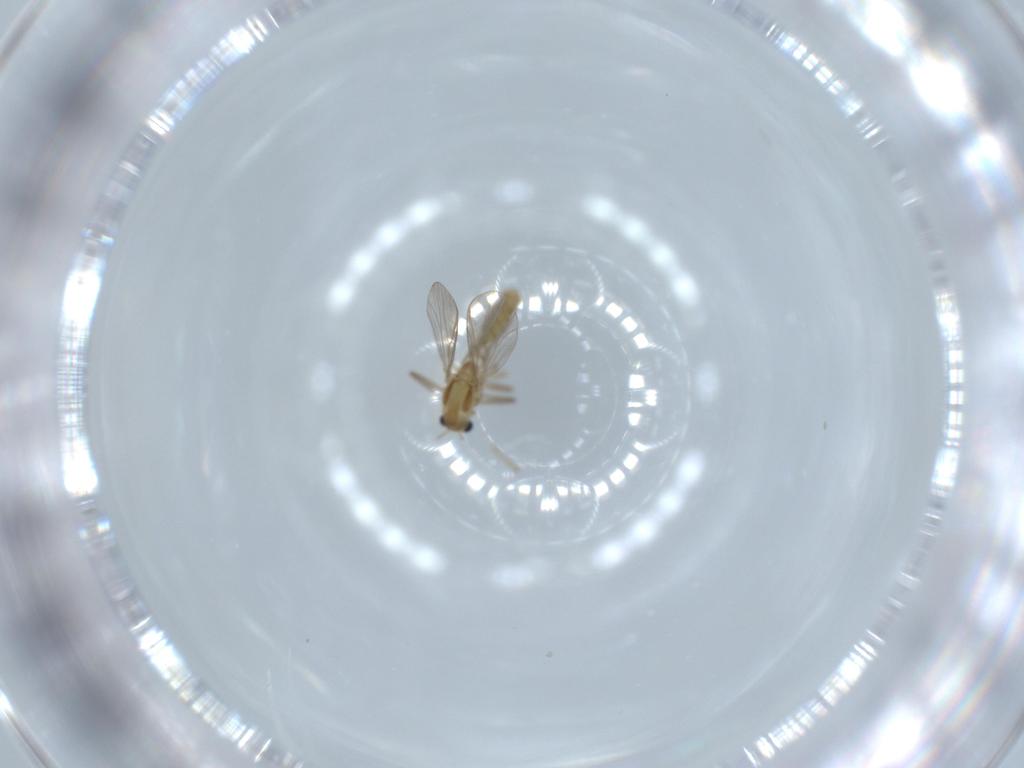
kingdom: Animalia
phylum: Arthropoda
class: Insecta
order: Diptera
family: Chironomidae
